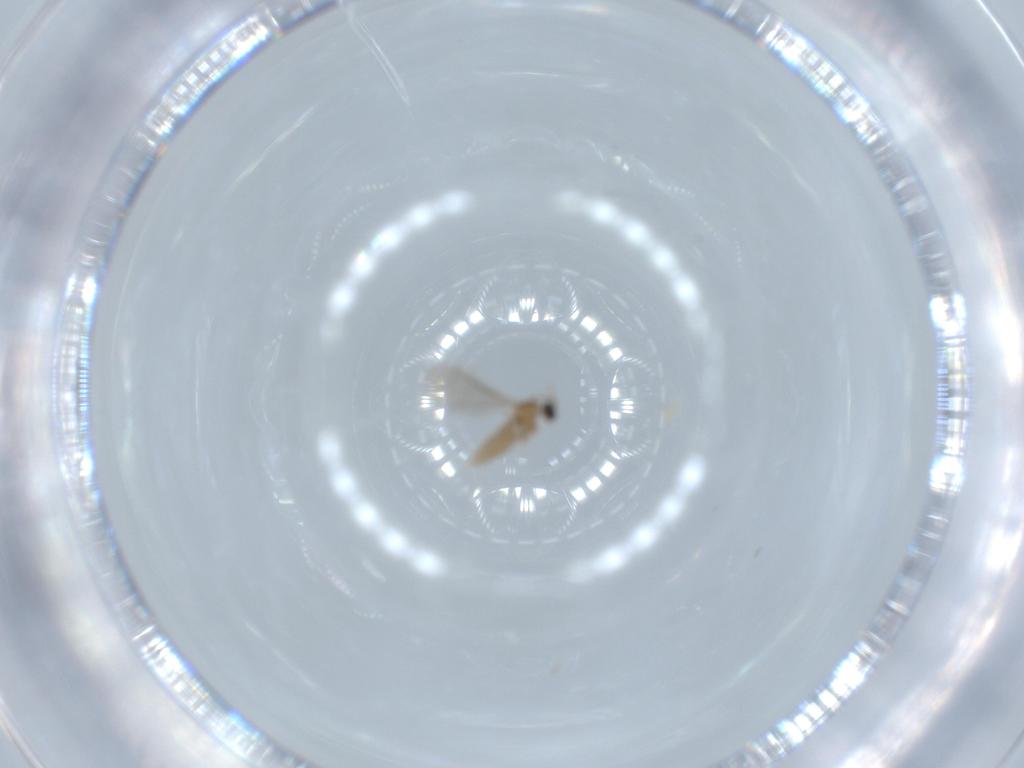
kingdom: Animalia
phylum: Arthropoda
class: Insecta
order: Diptera
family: Cecidomyiidae
